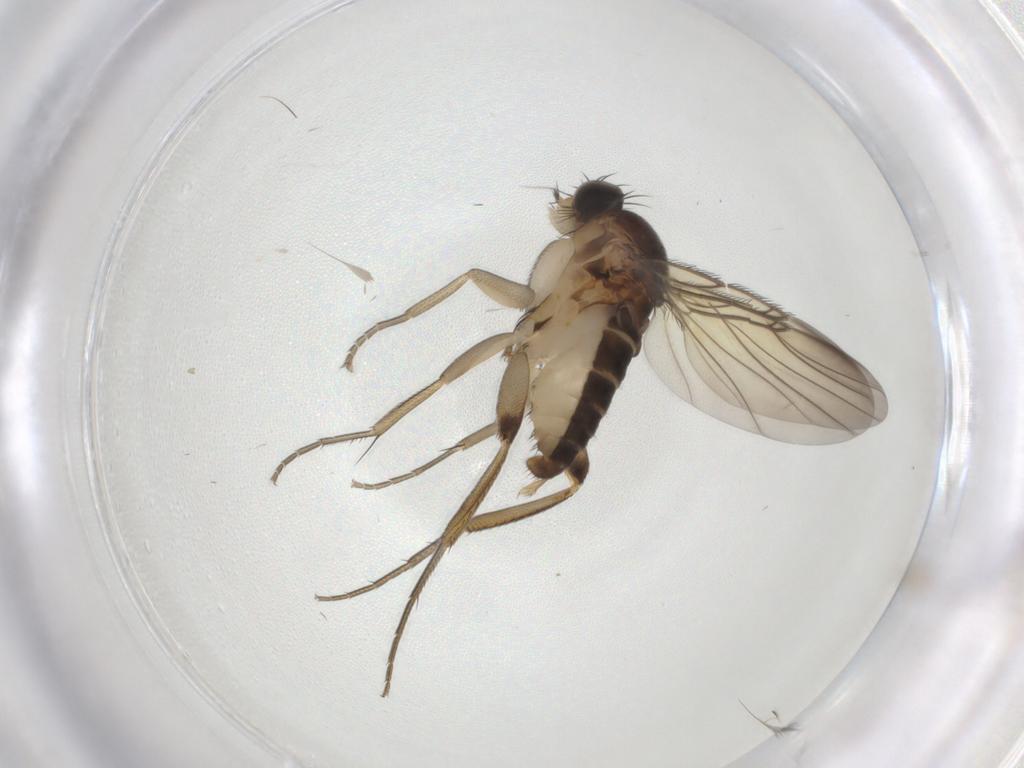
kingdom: Animalia
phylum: Arthropoda
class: Insecta
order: Diptera
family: Phoridae
